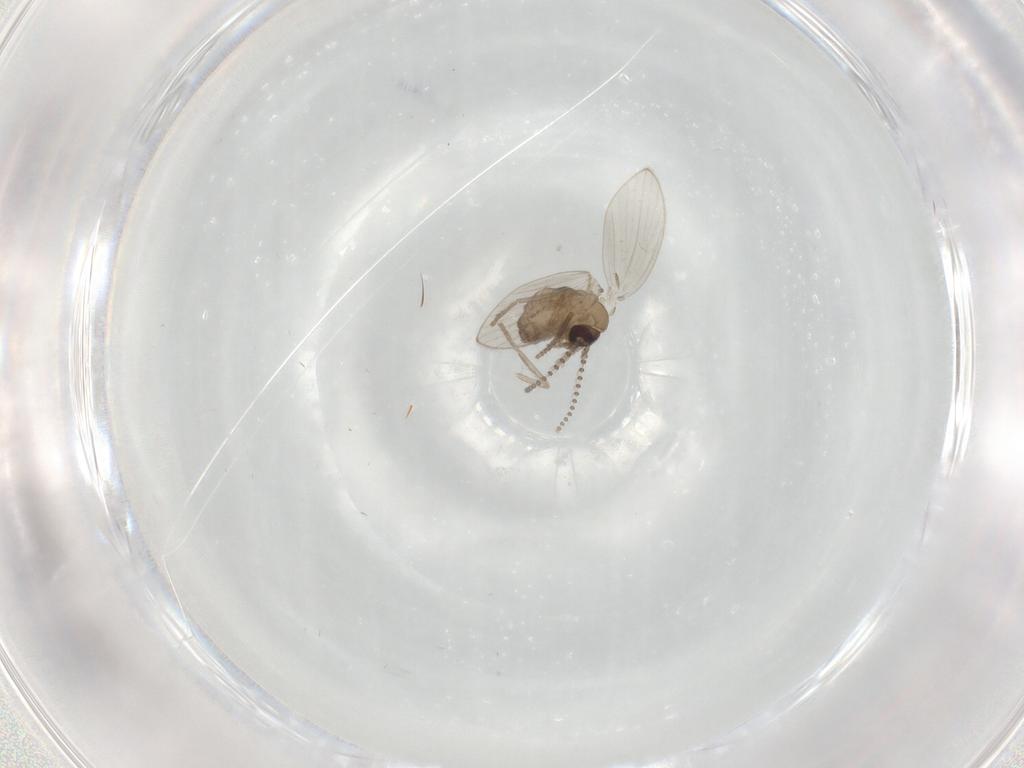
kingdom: Animalia
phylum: Arthropoda
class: Insecta
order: Diptera
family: Psychodidae
